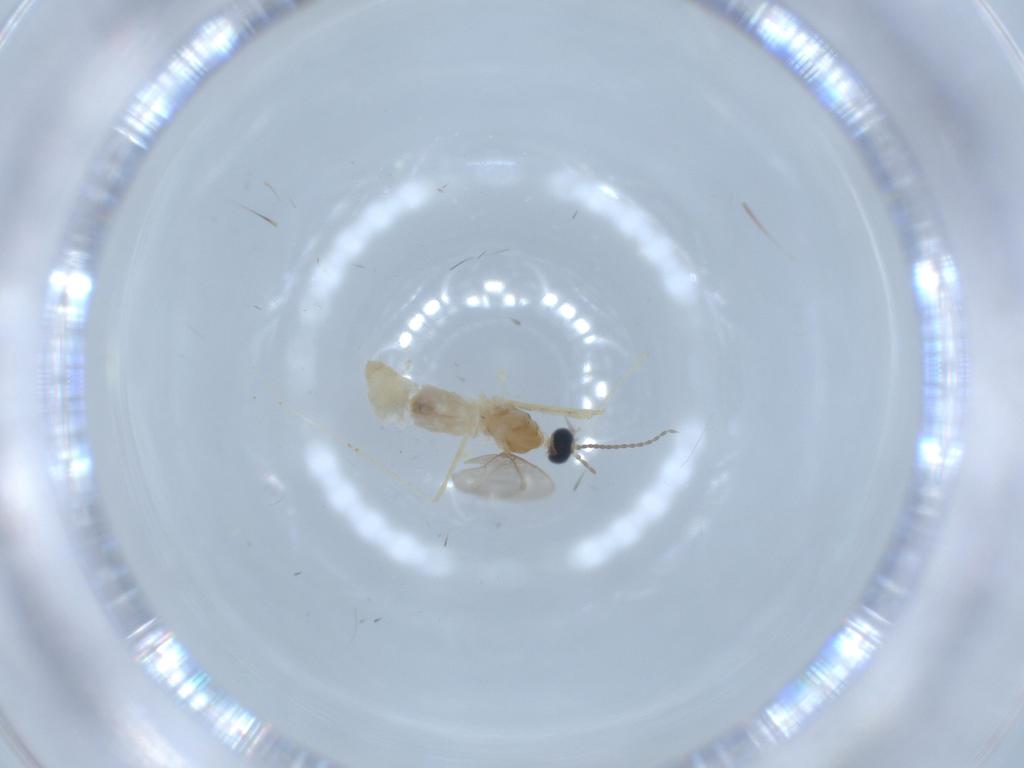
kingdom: Animalia
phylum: Arthropoda
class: Insecta
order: Diptera
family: Cecidomyiidae
